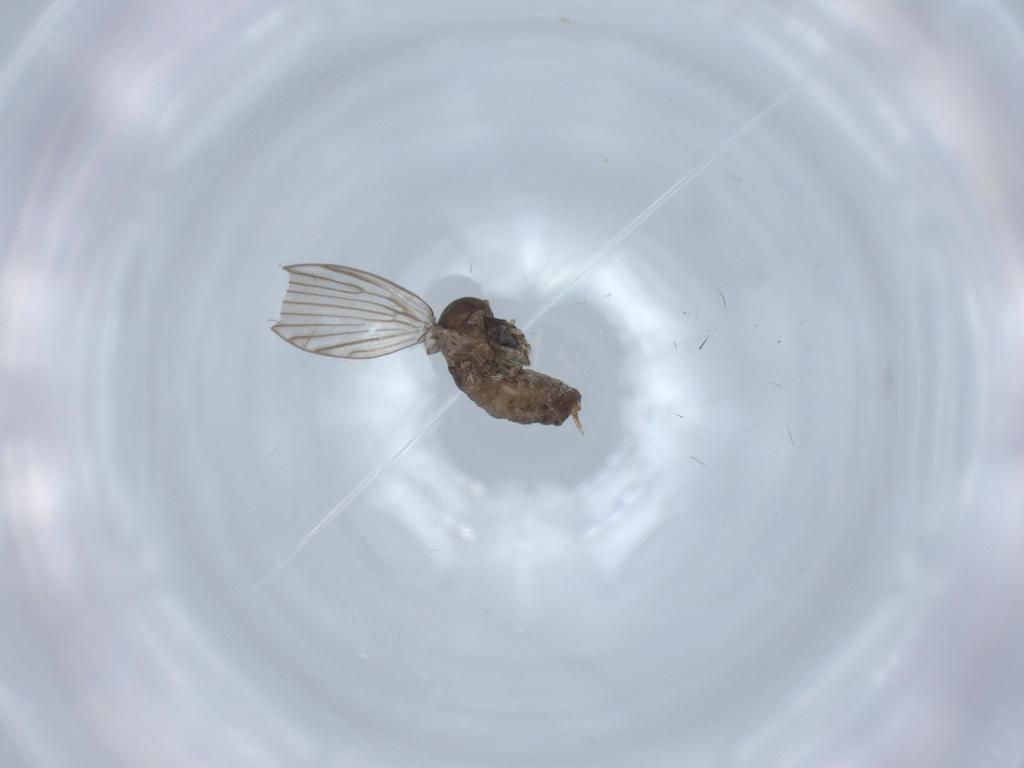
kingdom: Animalia
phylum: Arthropoda
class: Insecta
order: Diptera
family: Psychodidae
